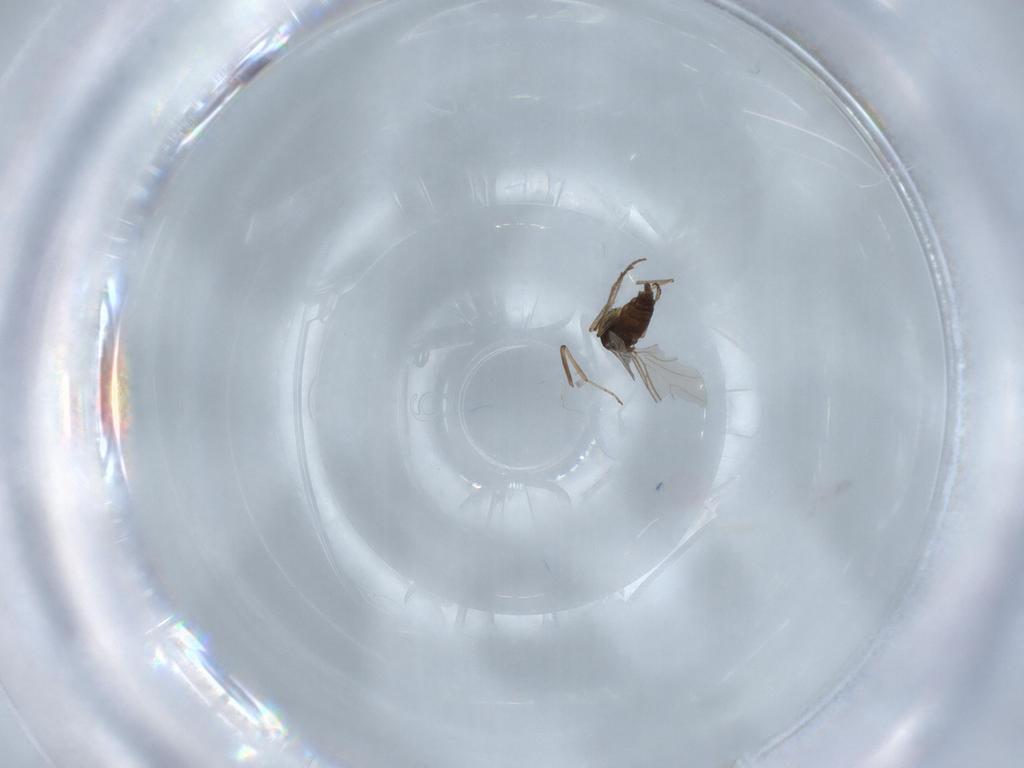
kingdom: Animalia
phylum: Arthropoda
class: Insecta
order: Diptera
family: Sciaridae
